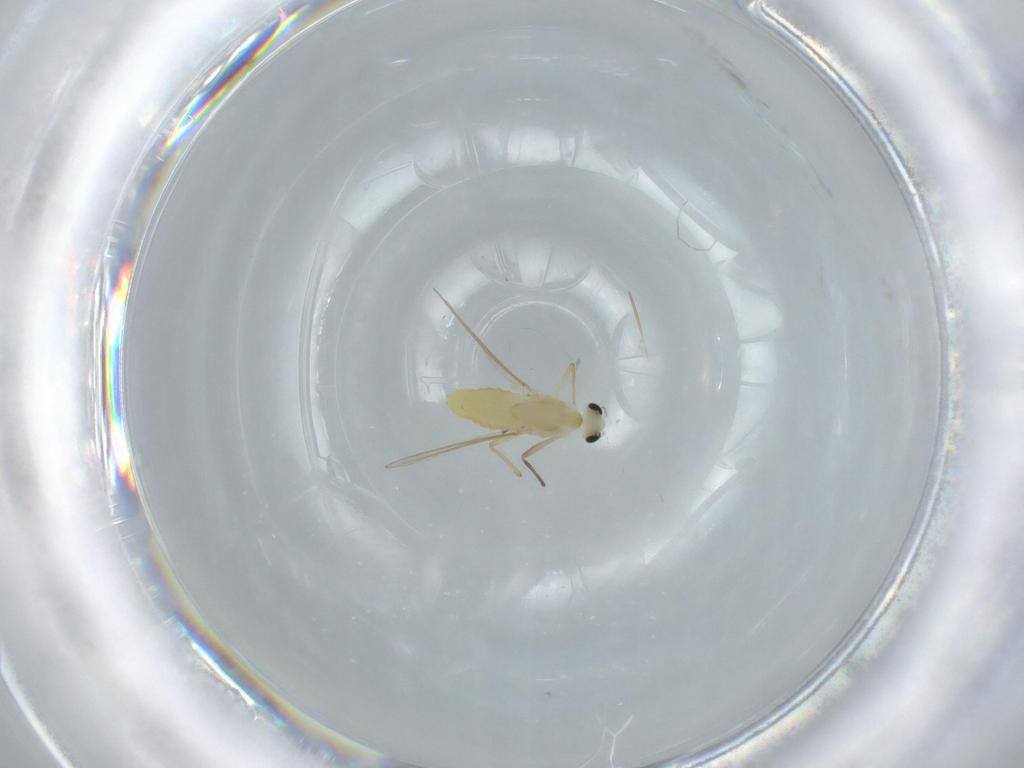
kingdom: Animalia
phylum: Arthropoda
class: Insecta
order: Diptera
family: Chironomidae
